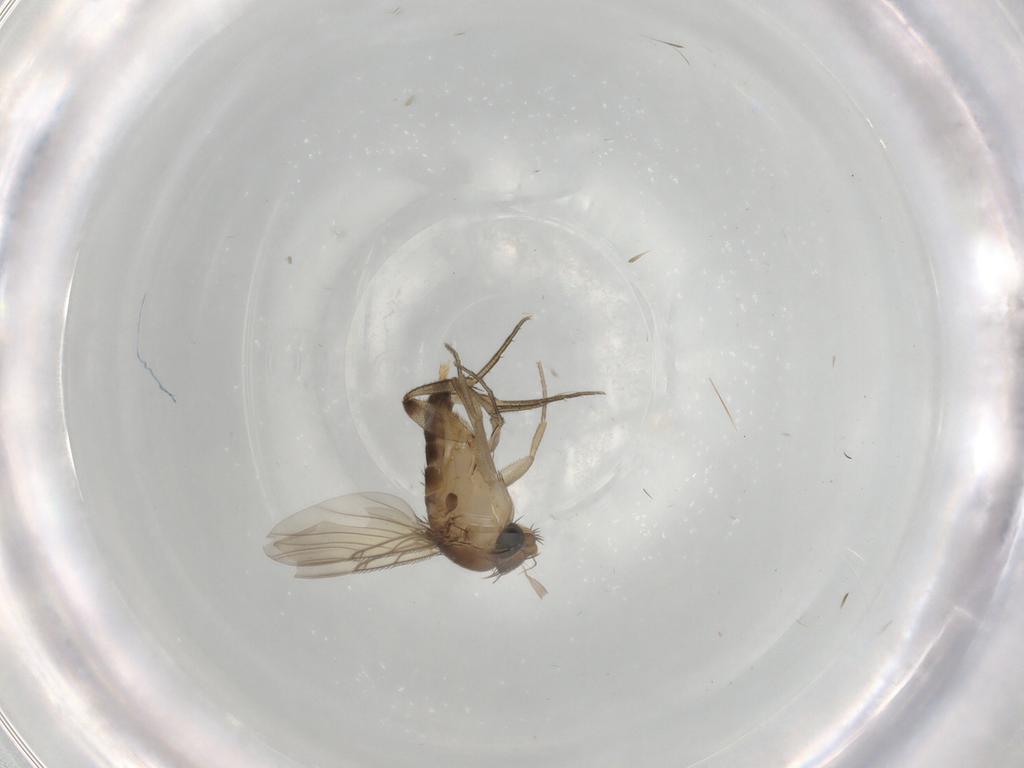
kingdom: Animalia
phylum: Arthropoda
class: Insecta
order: Diptera
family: Phoridae
